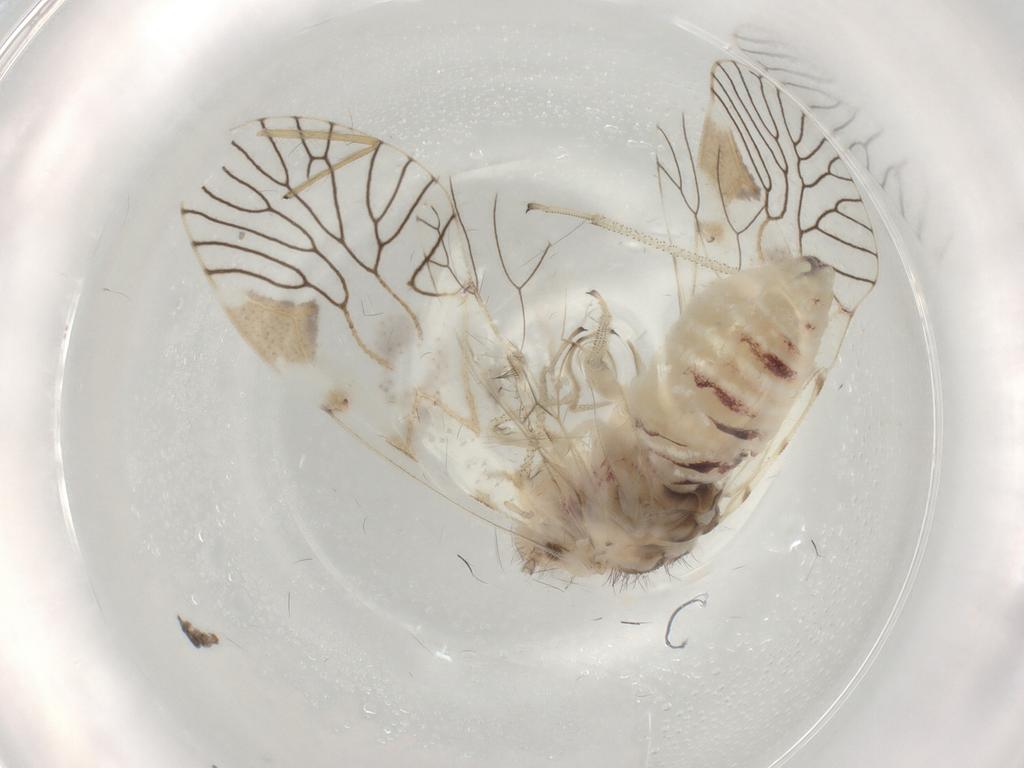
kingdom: Animalia
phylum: Arthropoda
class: Insecta
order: Psocodea
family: Amphipsocidae
